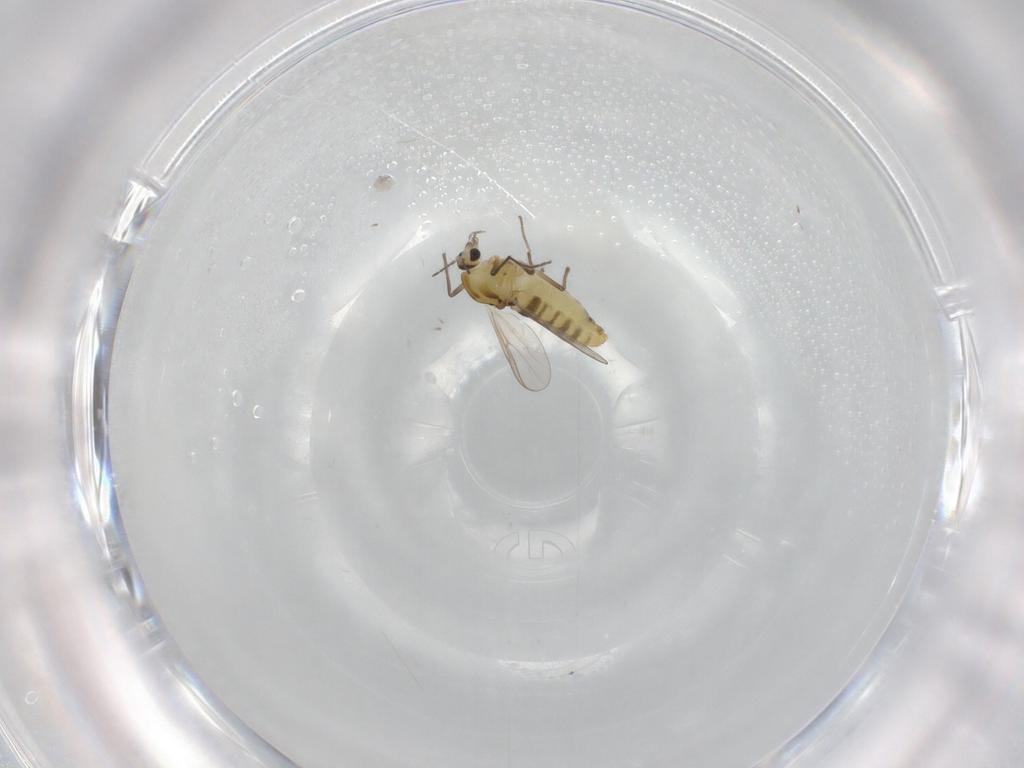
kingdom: Animalia
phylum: Arthropoda
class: Insecta
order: Diptera
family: Chironomidae
